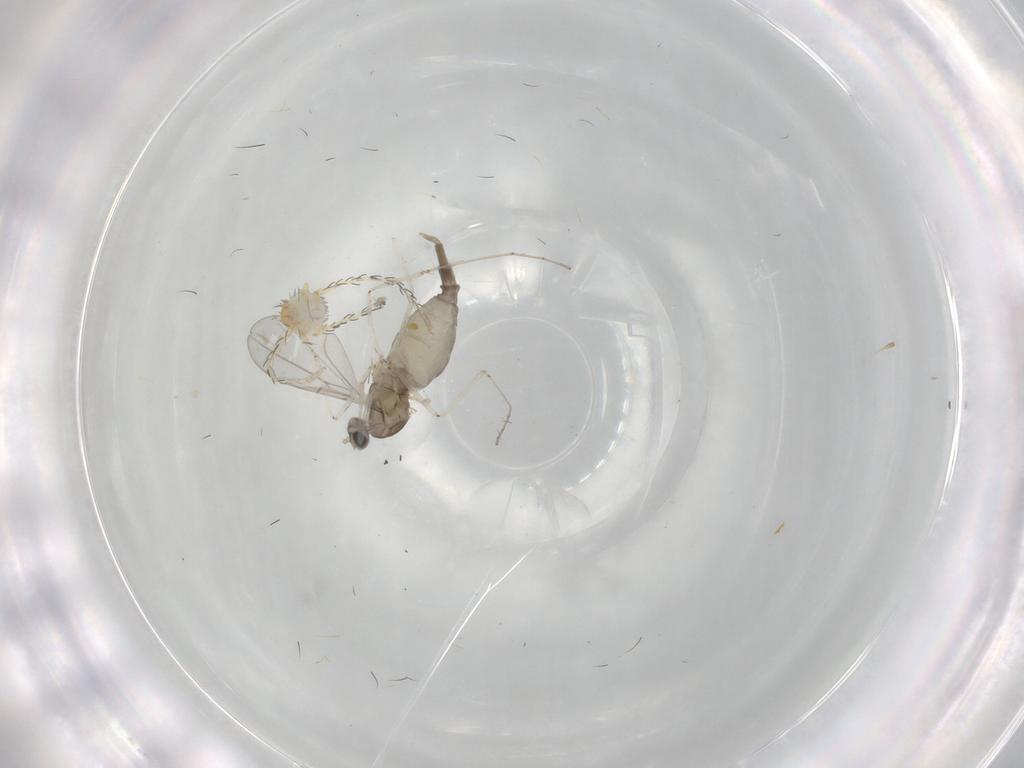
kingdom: Animalia
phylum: Arthropoda
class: Insecta
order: Diptera
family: Cecidomyiidae
